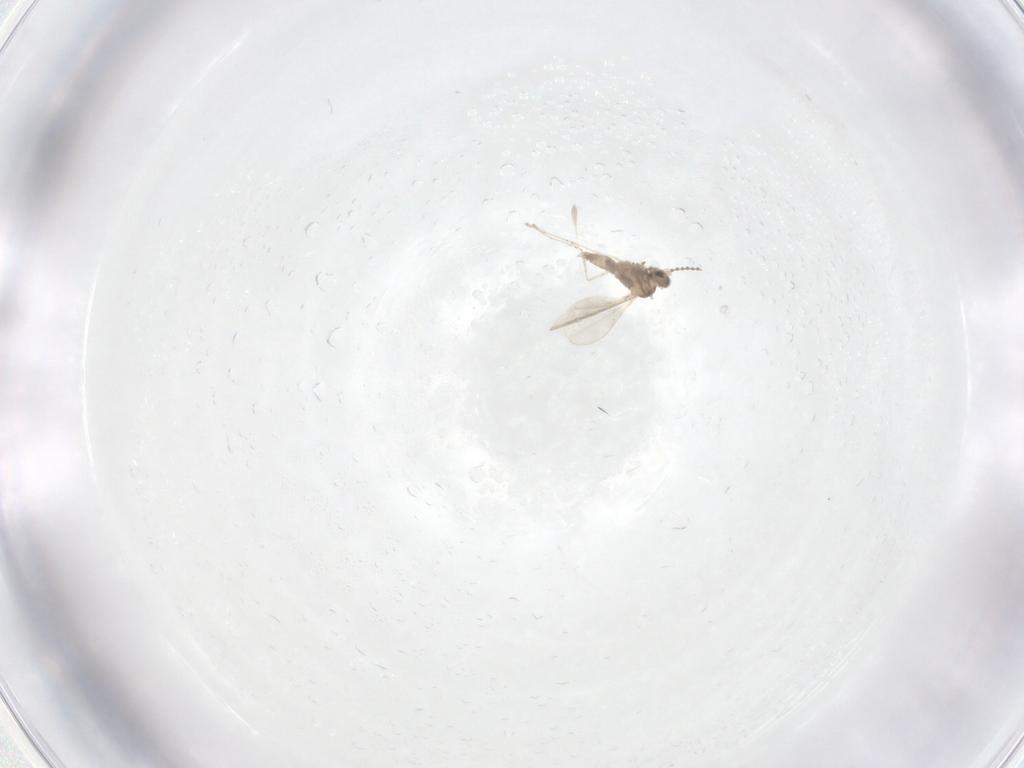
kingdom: Animalia
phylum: Arthropoda
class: Insecta
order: Diptera
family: Cecidomyiidae
